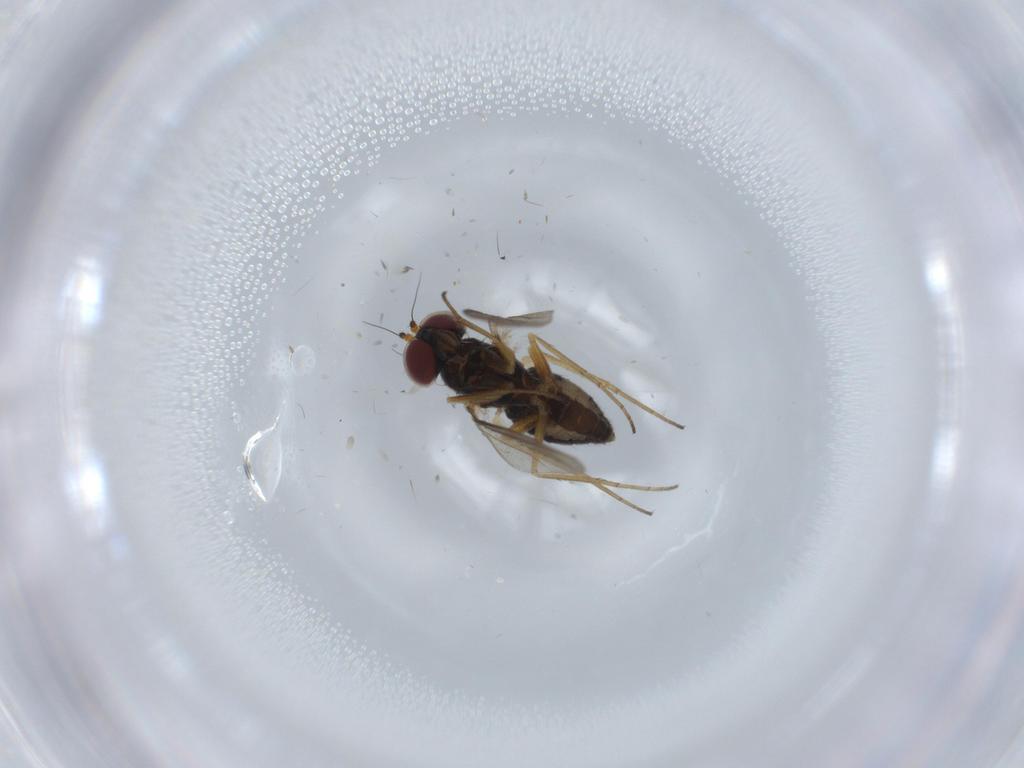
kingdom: Animalia
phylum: Arthropoda
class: Insecta
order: Diptera
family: Dolichopodidae
